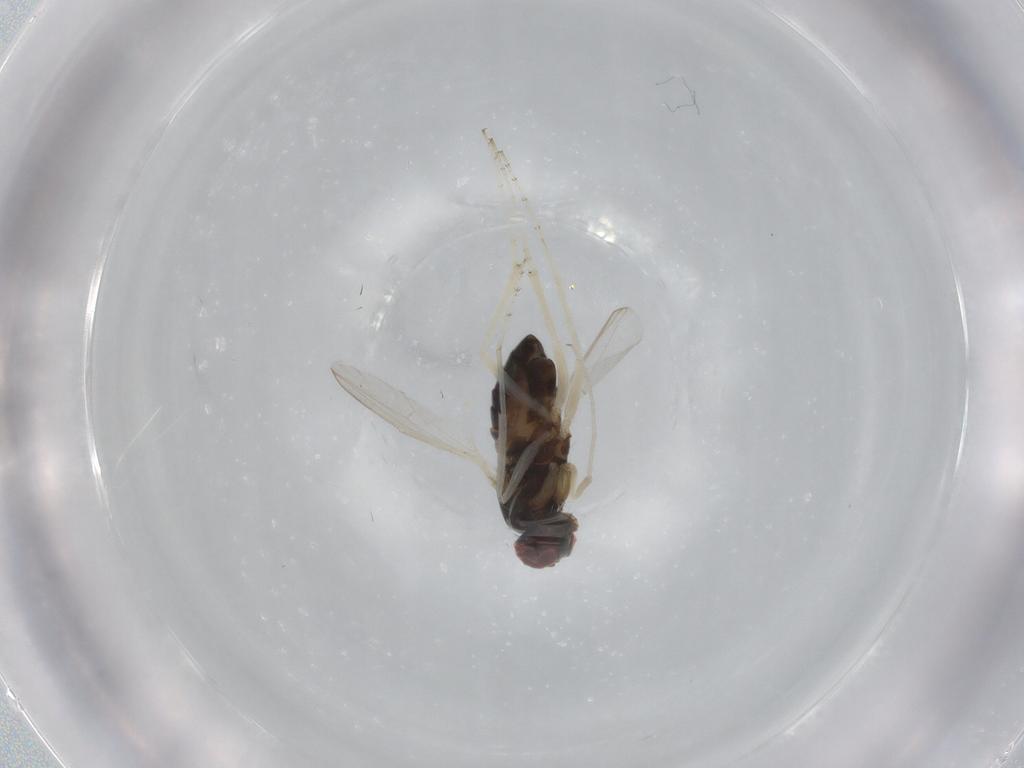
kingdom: Animalia
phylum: Arthropoda
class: Insecta
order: Diptera
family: Dolichopodidae
